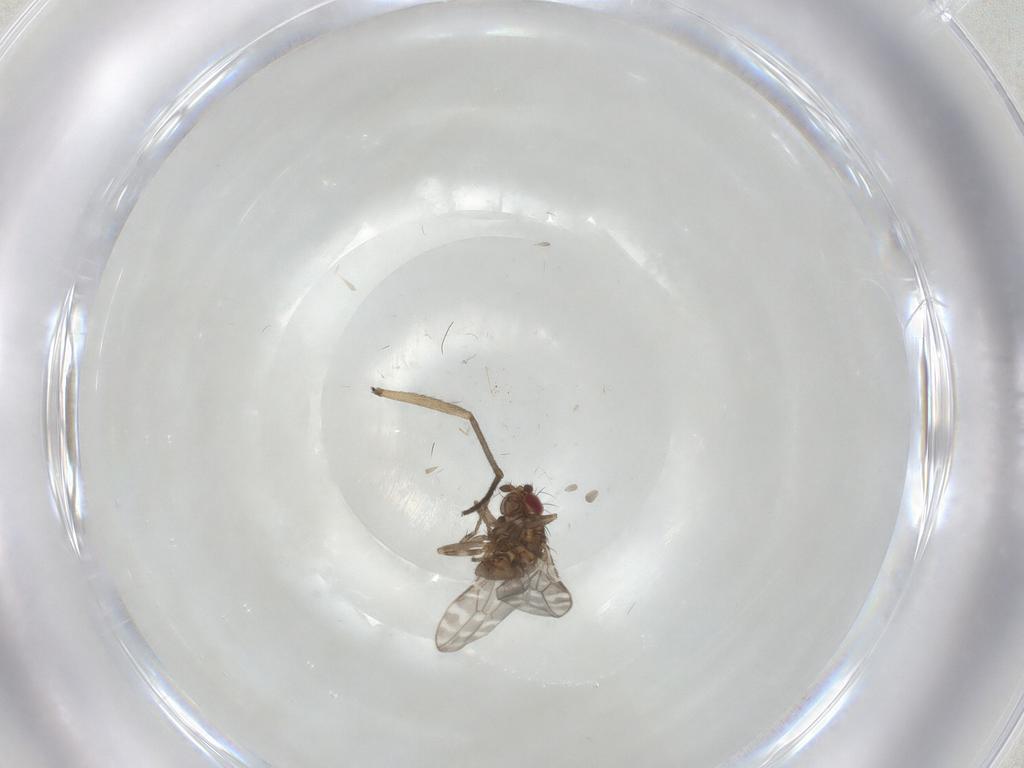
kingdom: Animalia
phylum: Arthropoda
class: Insecta
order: Diptera
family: Sciaridae
